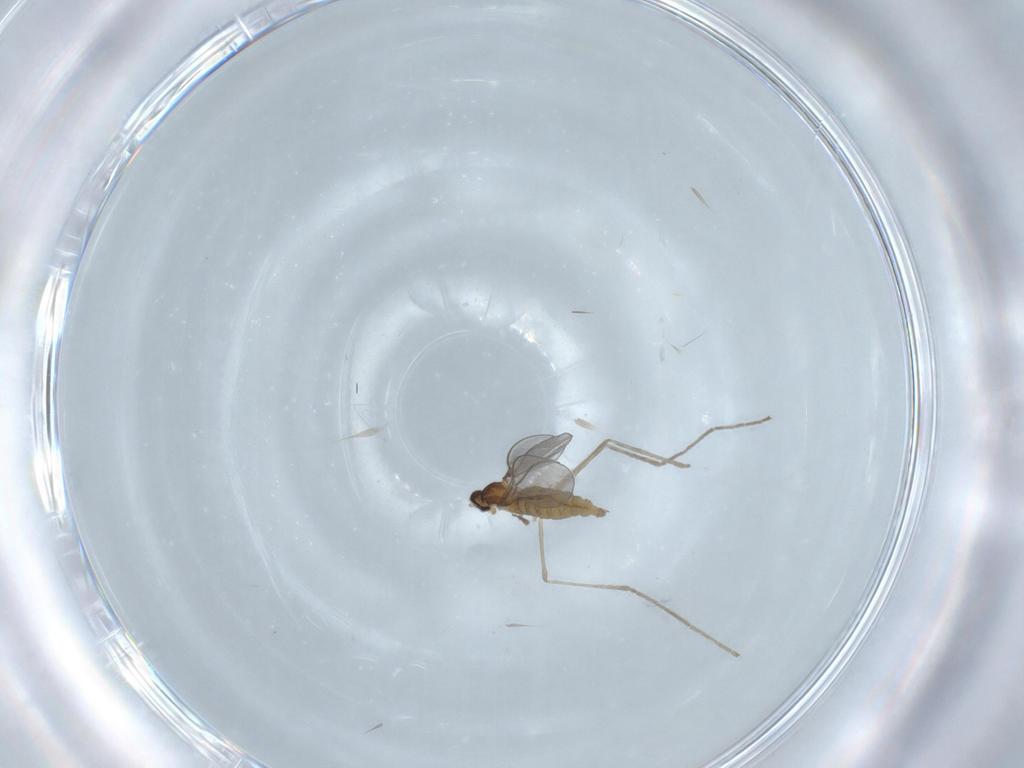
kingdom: Animalia
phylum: Arthropoda
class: Insecta
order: Diptera
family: Cecidomyiidae
